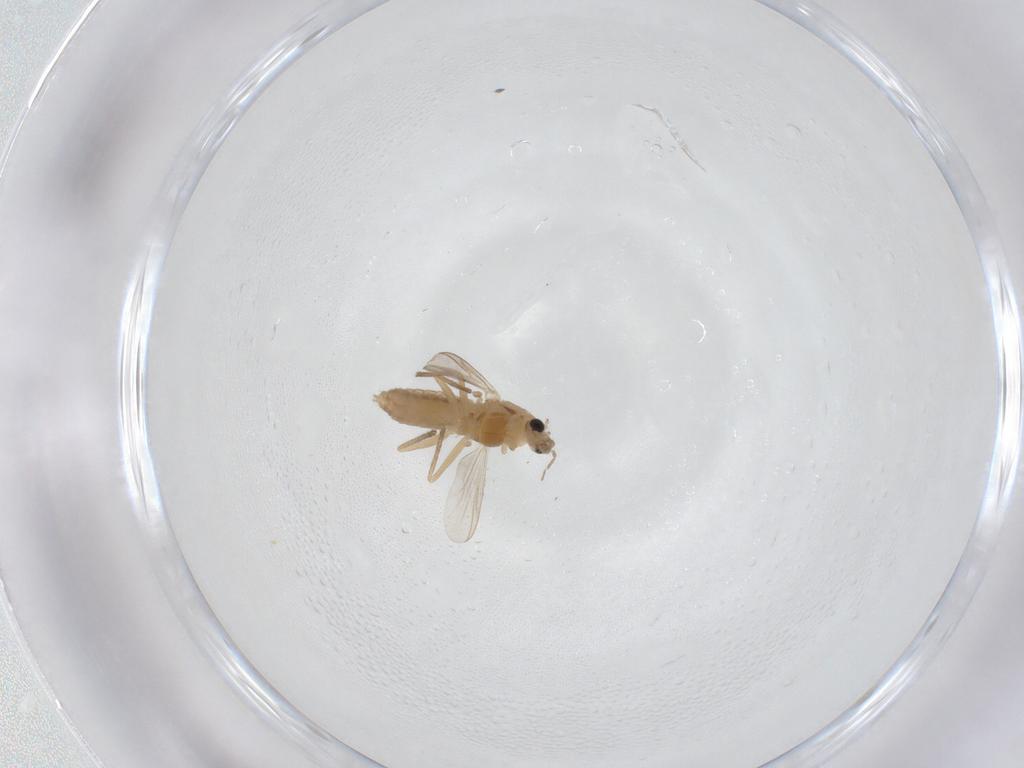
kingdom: Animalia
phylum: Arthropoda
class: Insecta
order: Diptera
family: Chironomidae
